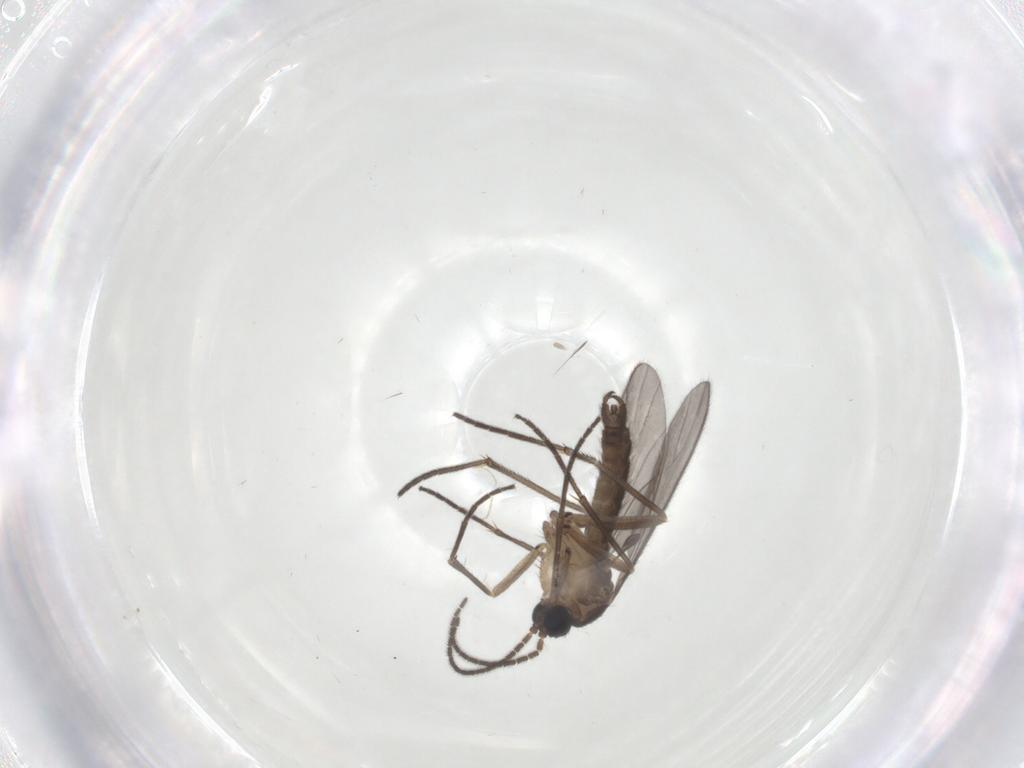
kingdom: Animalia
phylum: Arthropoda
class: Insecta
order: Diptera
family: Sciaridae
